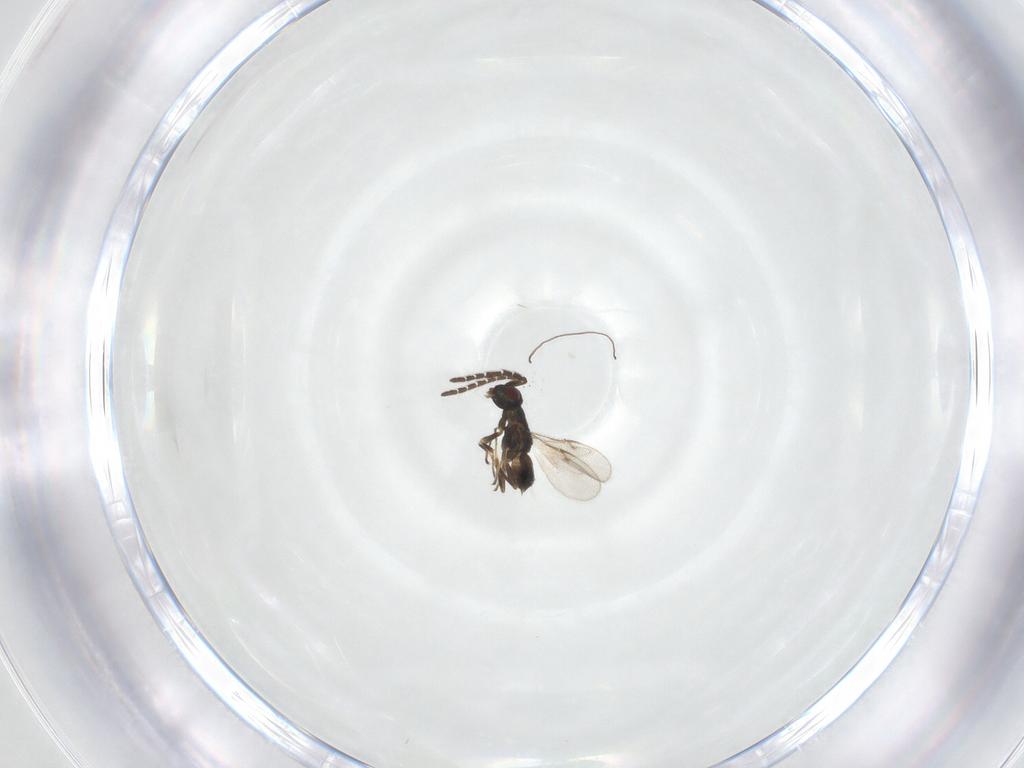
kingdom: Animalia
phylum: Arthropoda
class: Insecta
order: Hymenoptera
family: Encyrtidae
